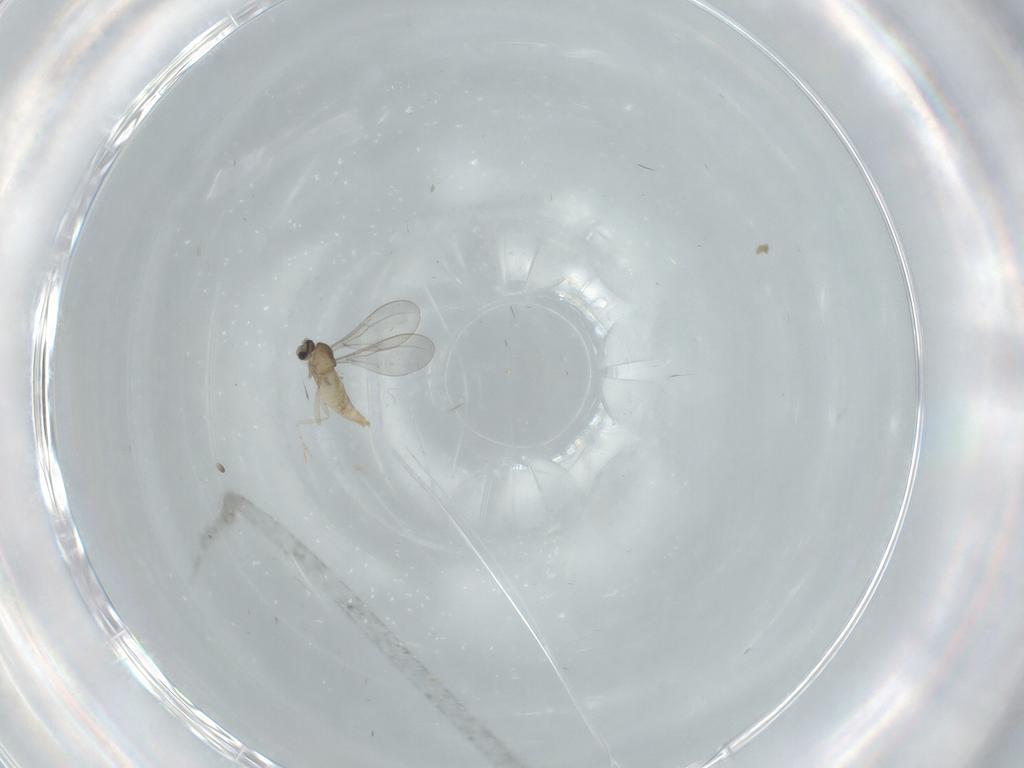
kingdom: Animalia
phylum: Arthropoda
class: Insecta
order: Diptera
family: Cecidomyiidae
